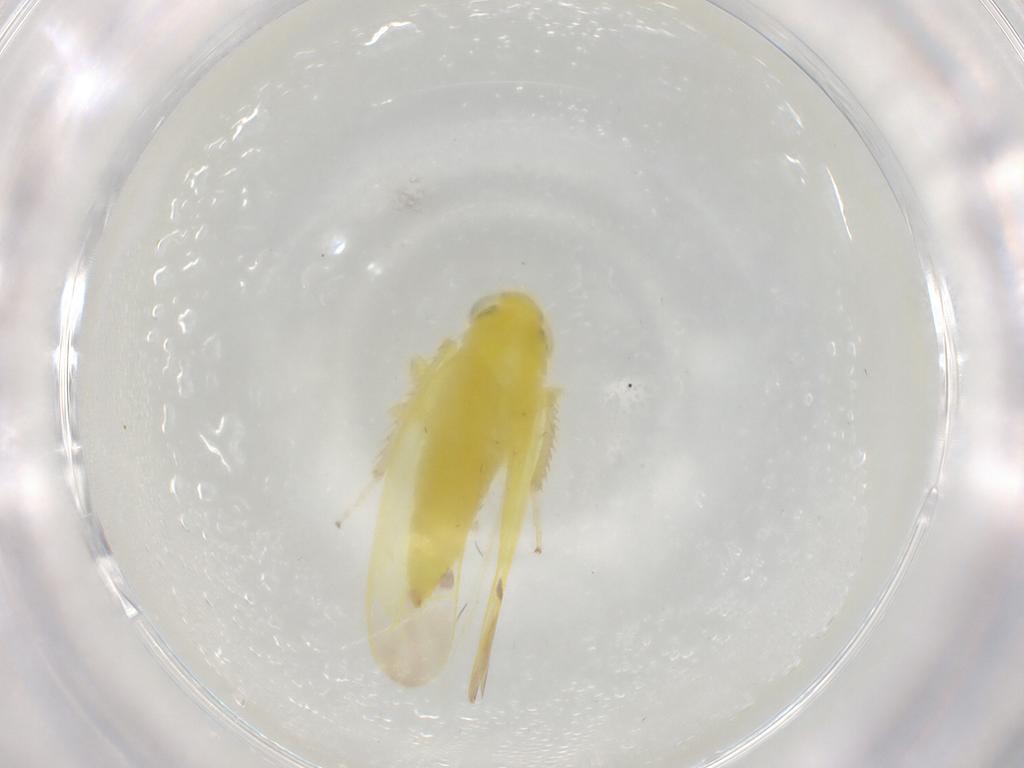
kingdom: Animalia
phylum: Arthropoda
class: Insecta
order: Hemiptera
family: Cicadellidae
